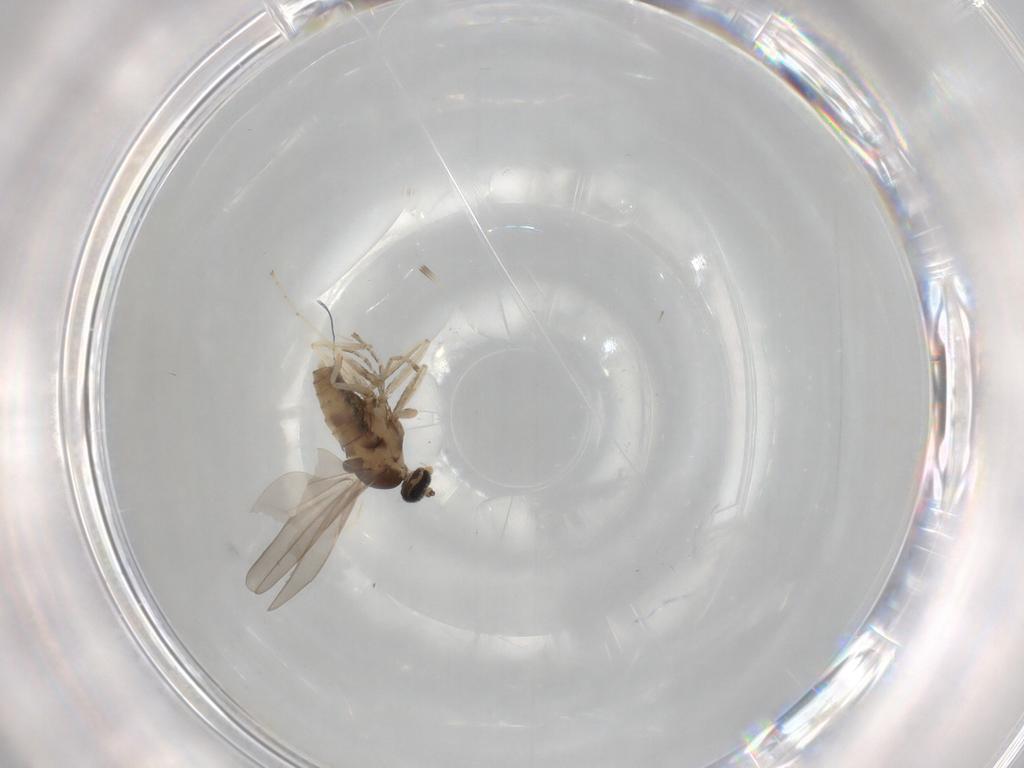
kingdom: Animalia
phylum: Arthropoda
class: Insecta
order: Diptera
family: Cecidomyiidae
